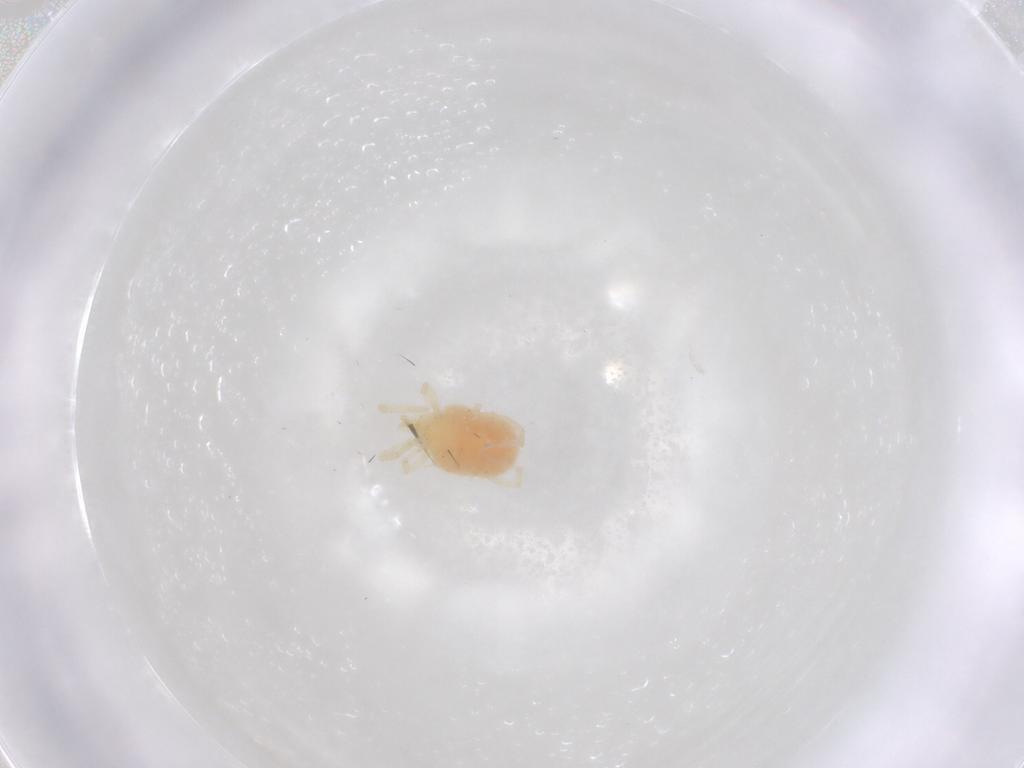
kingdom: Animalia
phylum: Arthropoda
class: Arachnida
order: Trombidiformes
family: Erythraeidae
